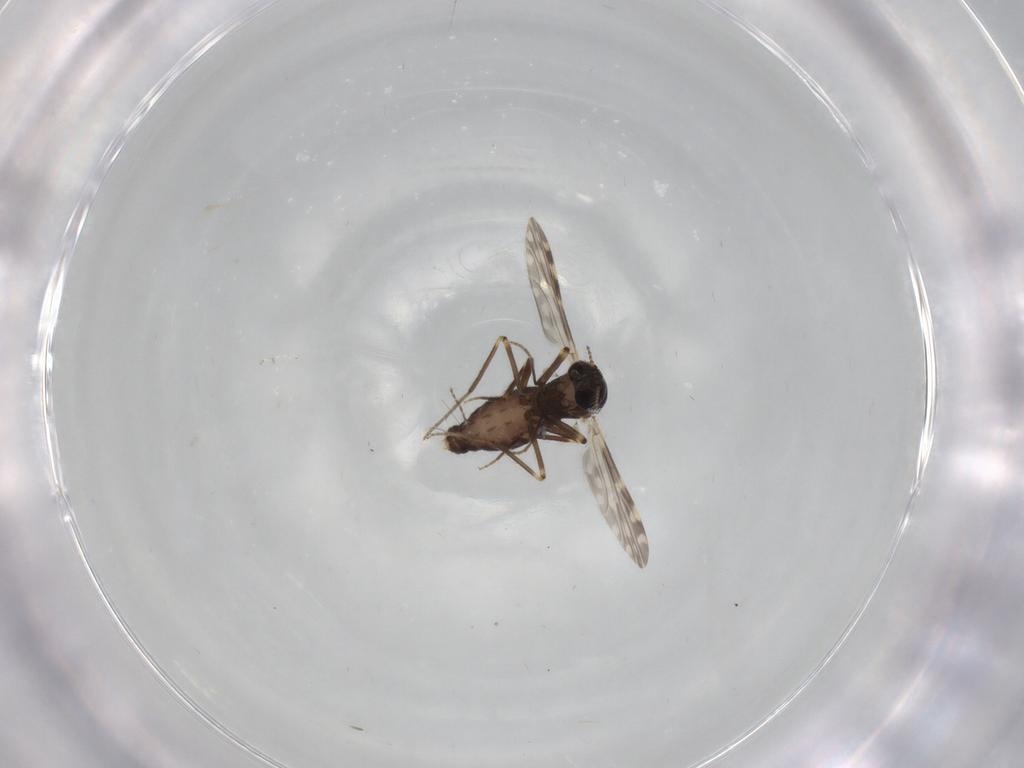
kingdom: Animalia
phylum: Arthropoda
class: Insecta
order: Diptera
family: Ceratopogonidae
